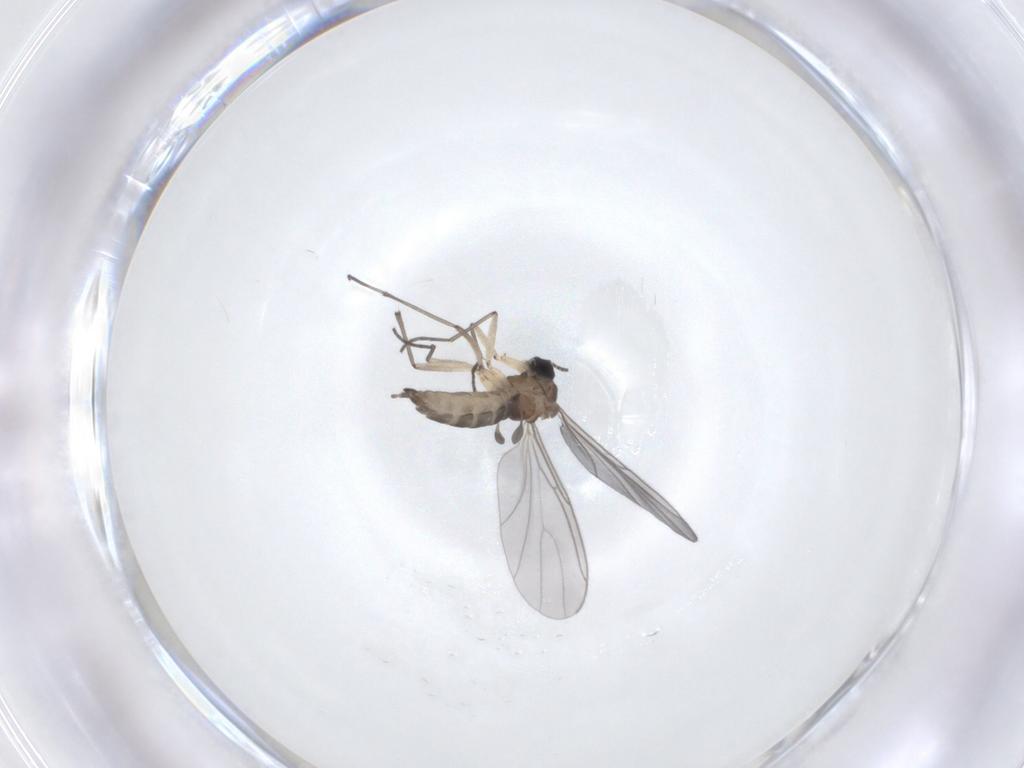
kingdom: Animalia
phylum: Arthropoda
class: Insecta
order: Diptera
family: Sciaridae
